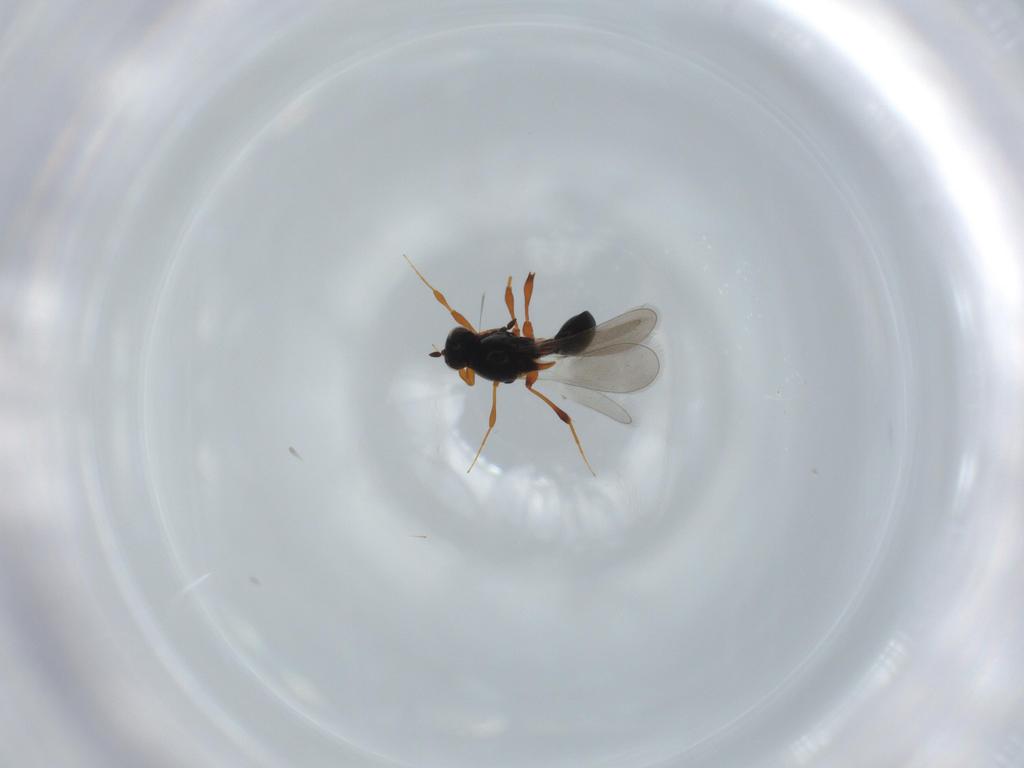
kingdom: Animalia
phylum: Arthropoda
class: Insecta
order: Hymenoptera
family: Platygastridae
